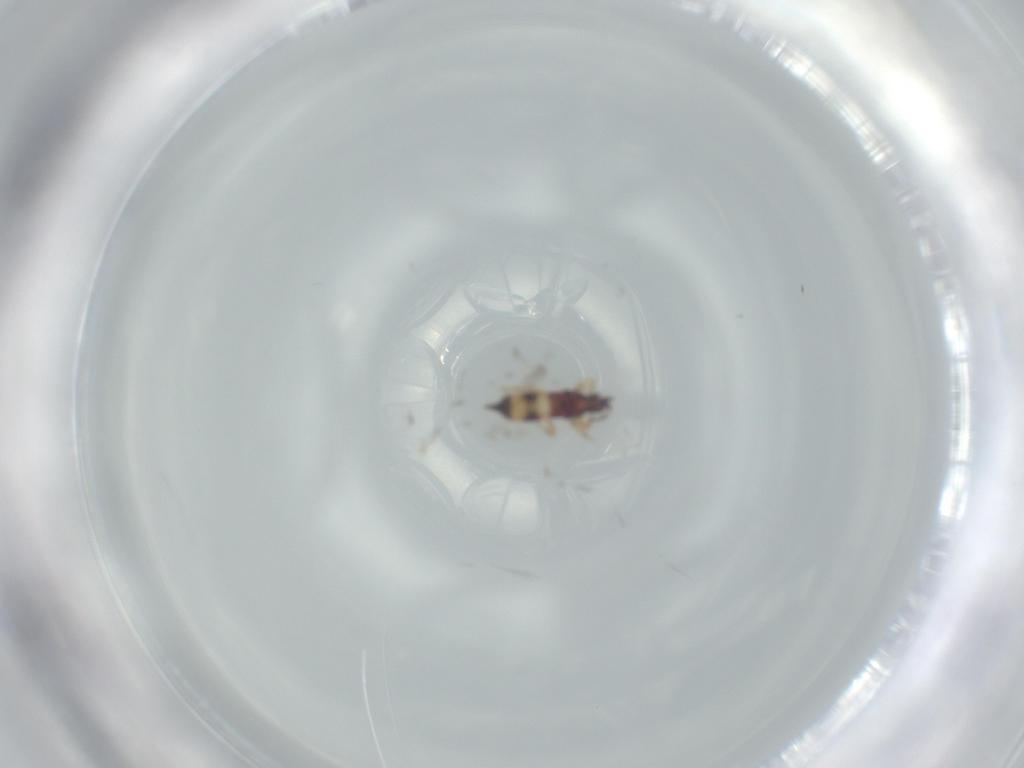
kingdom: Animalia
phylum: Arthropoda
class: Insecta
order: Thysanoptera
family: Phlaeothripidae
